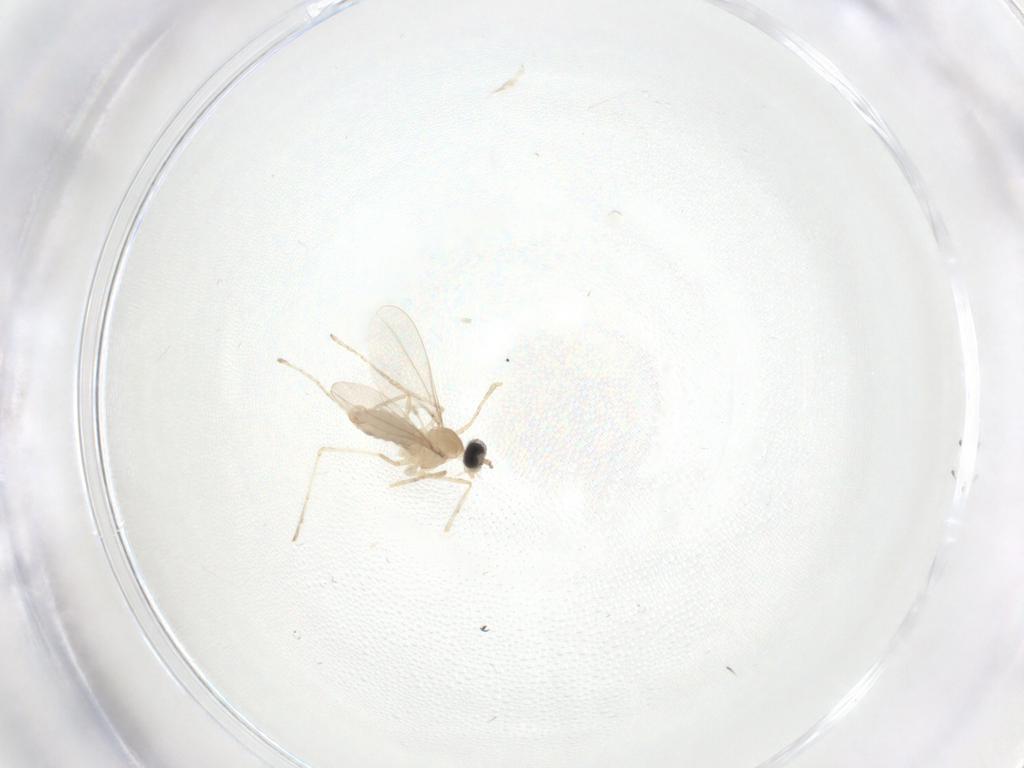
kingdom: Animalia
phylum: Arthropoda
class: Insecta
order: Diptera
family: Cecidomyiidae
